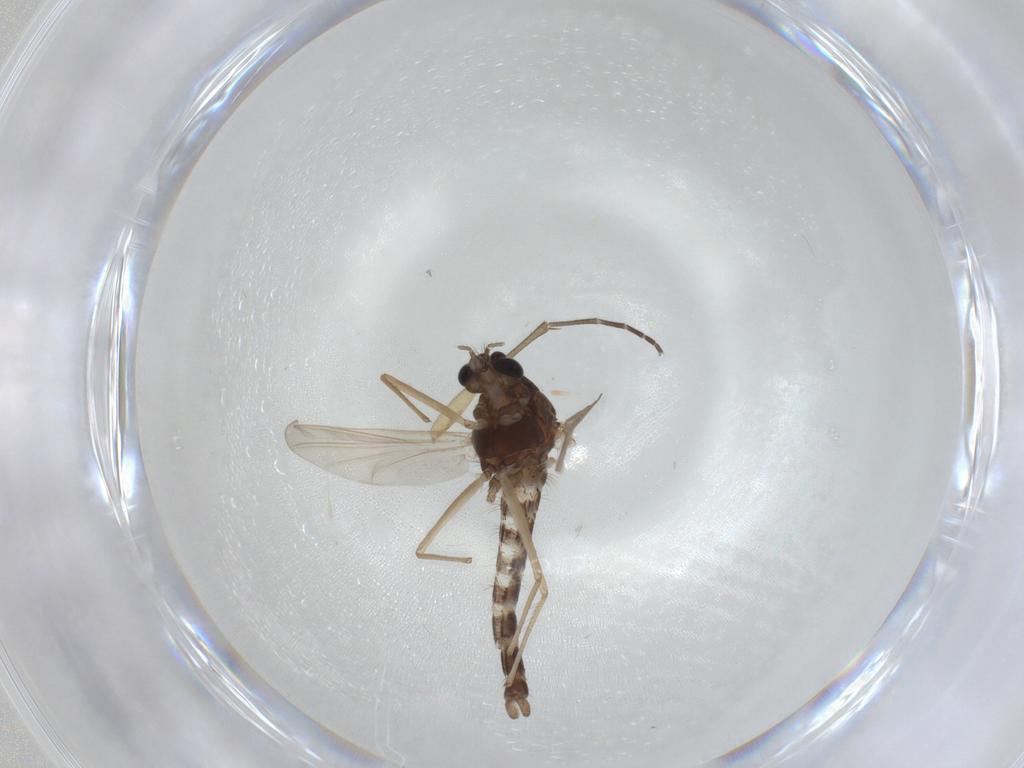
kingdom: Animalia
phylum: Arthropoda
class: Insecta
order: Diptera
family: Chironomidae
